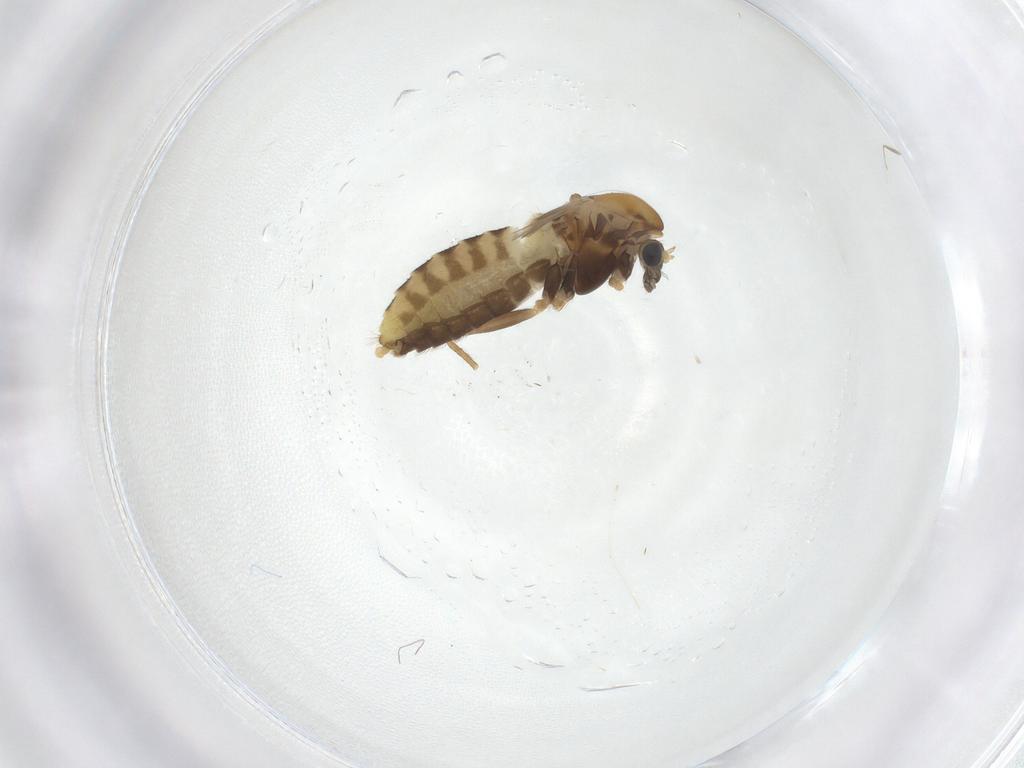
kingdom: Animalia
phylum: Arthropoda
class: Insecta
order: Diptera
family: Chironomidae
